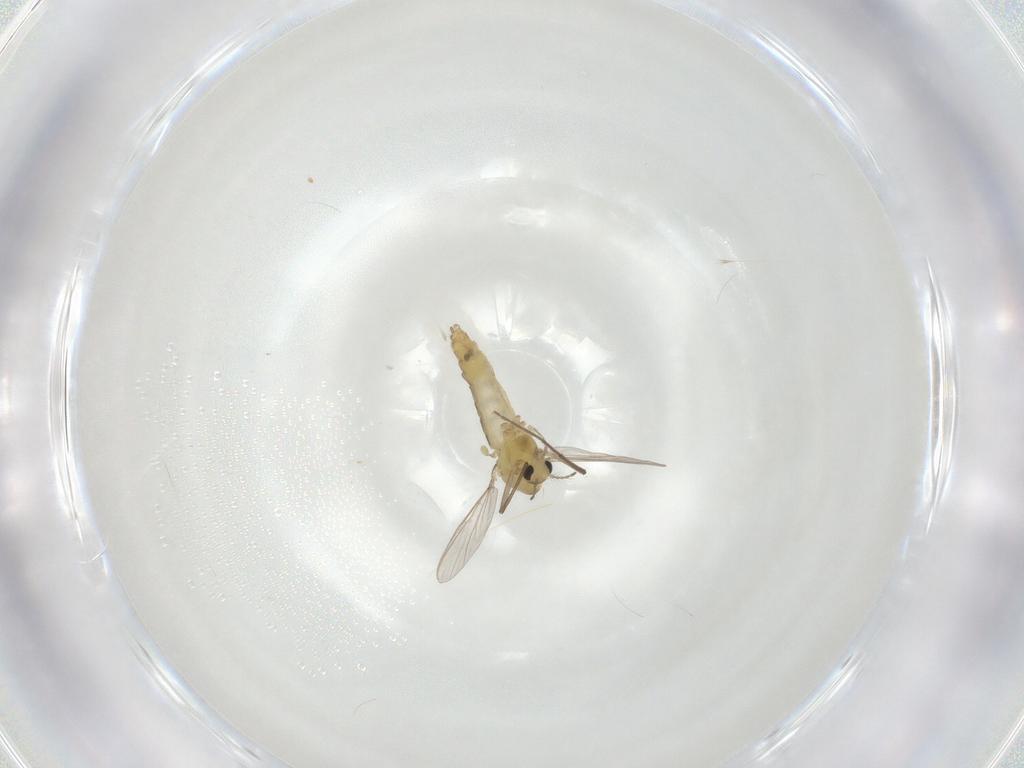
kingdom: Animalia
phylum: Arthropoda
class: Insecta
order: Diptera
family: Chironomidae
